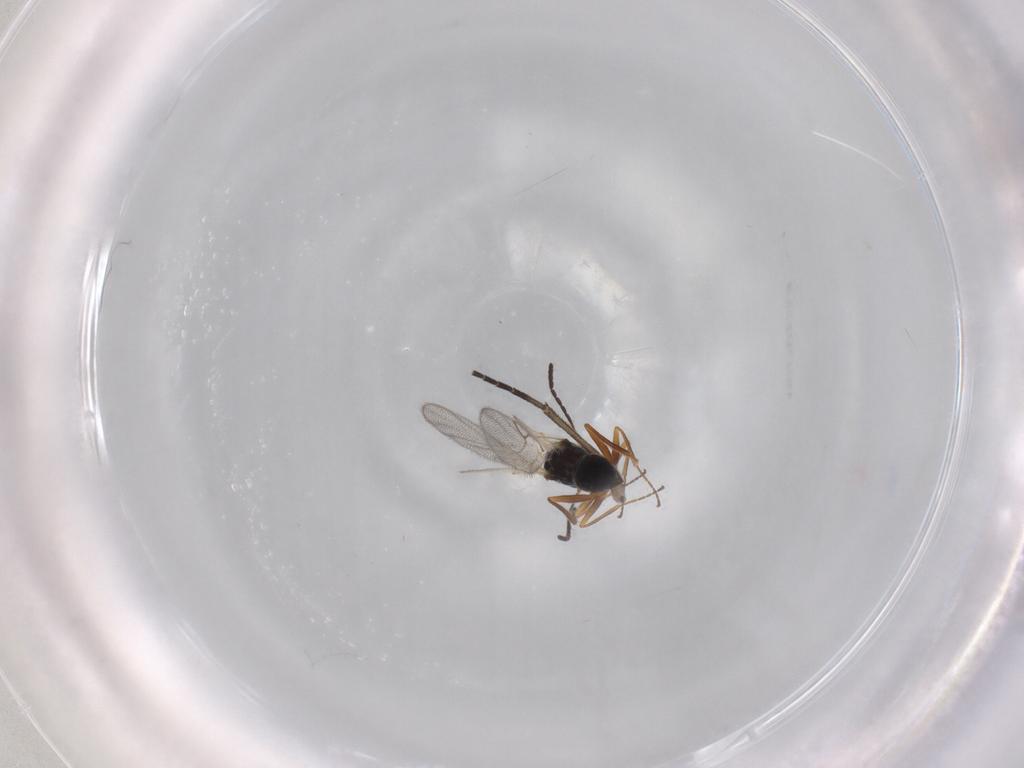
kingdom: Animalia
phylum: Arthropoda
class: Insecta
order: Hymenoptera
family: Figitidae
